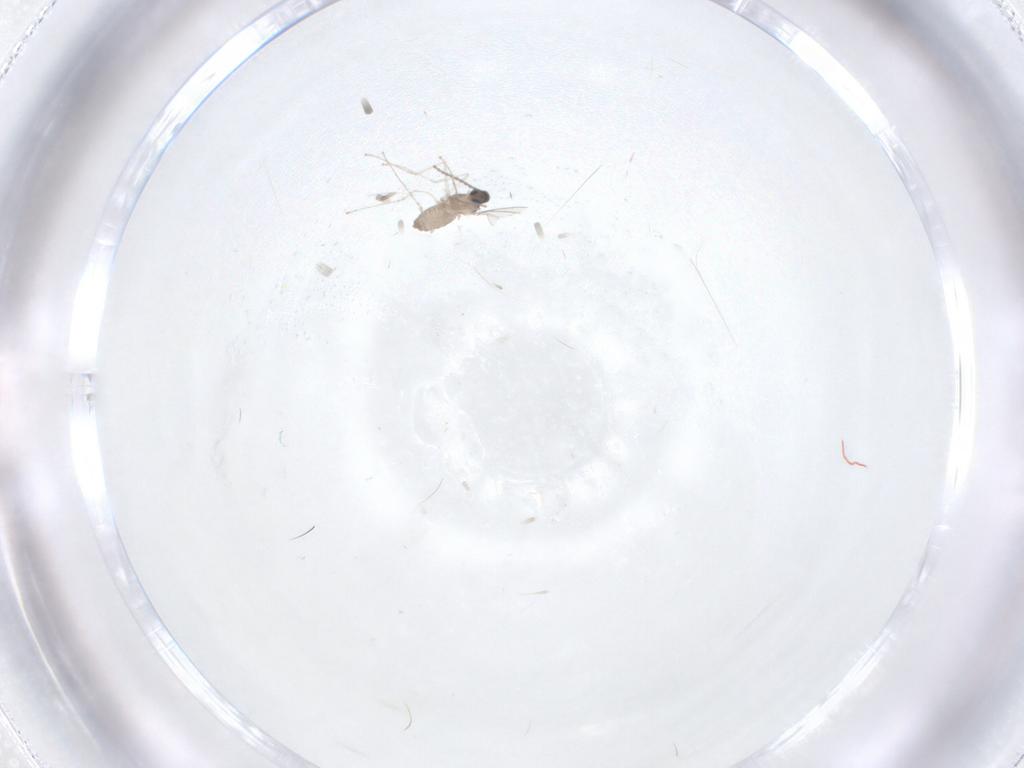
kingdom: Animalia
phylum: Arthropoda
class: Insecta
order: Diptera
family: Cecidomyiidae
